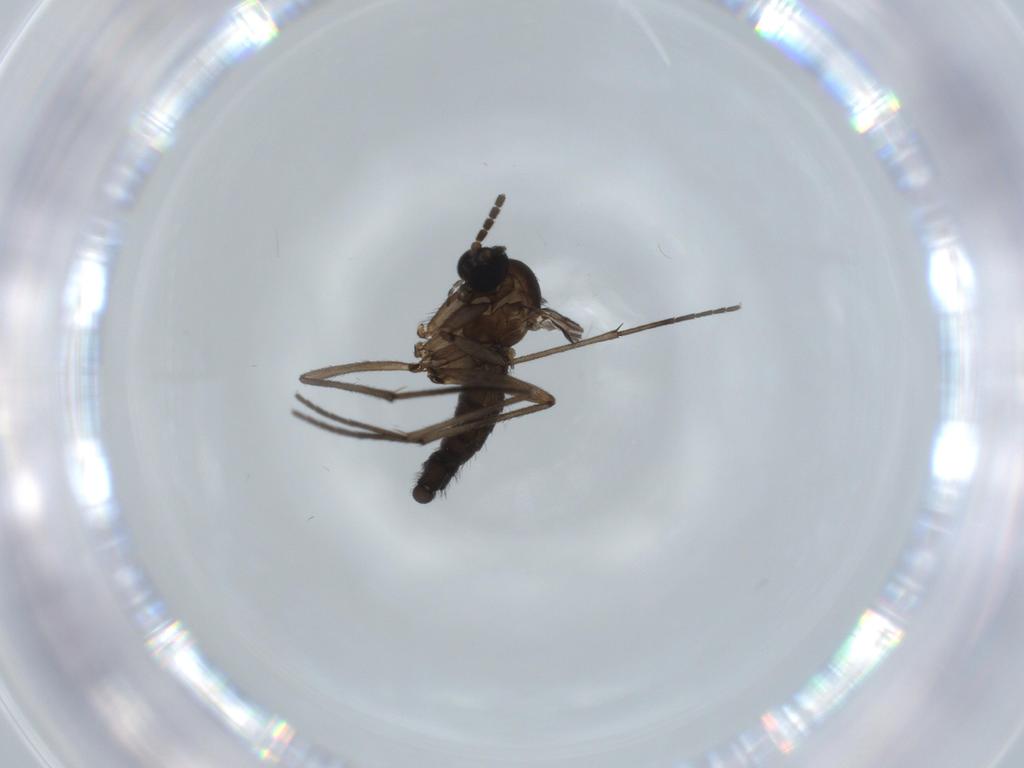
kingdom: Animalia
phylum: Arthropoda
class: Insecta
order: Diptera
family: Sciaridae
